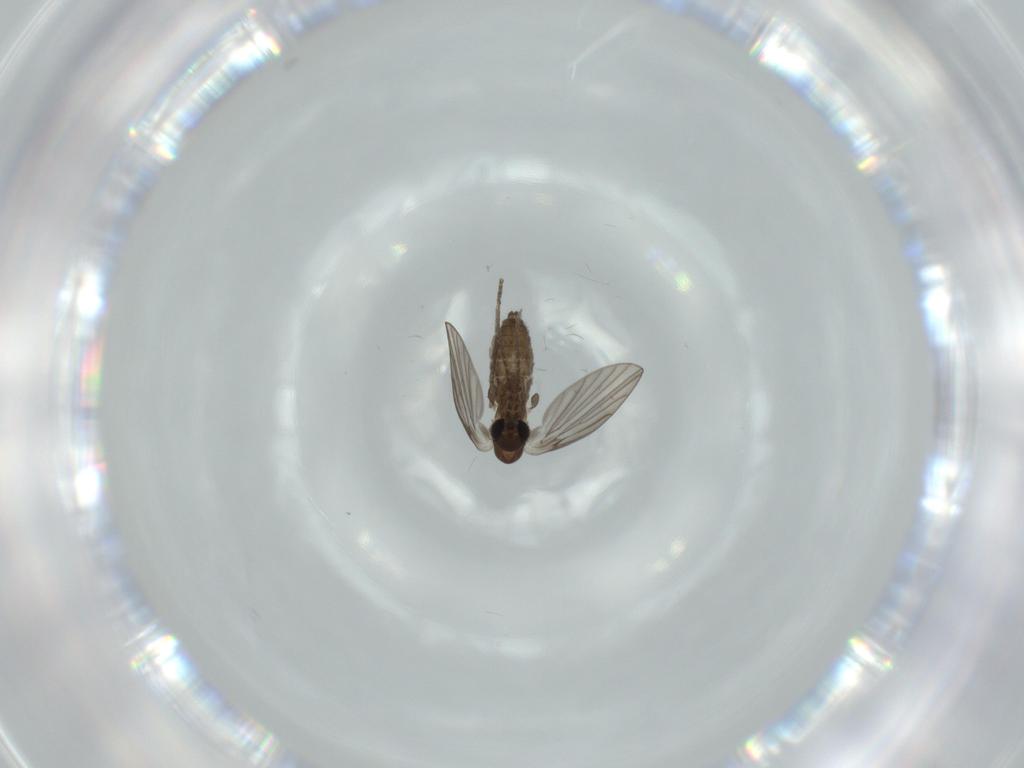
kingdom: Animalia
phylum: Arthropoda
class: Insecta
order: Diptera
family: Psychodidae
